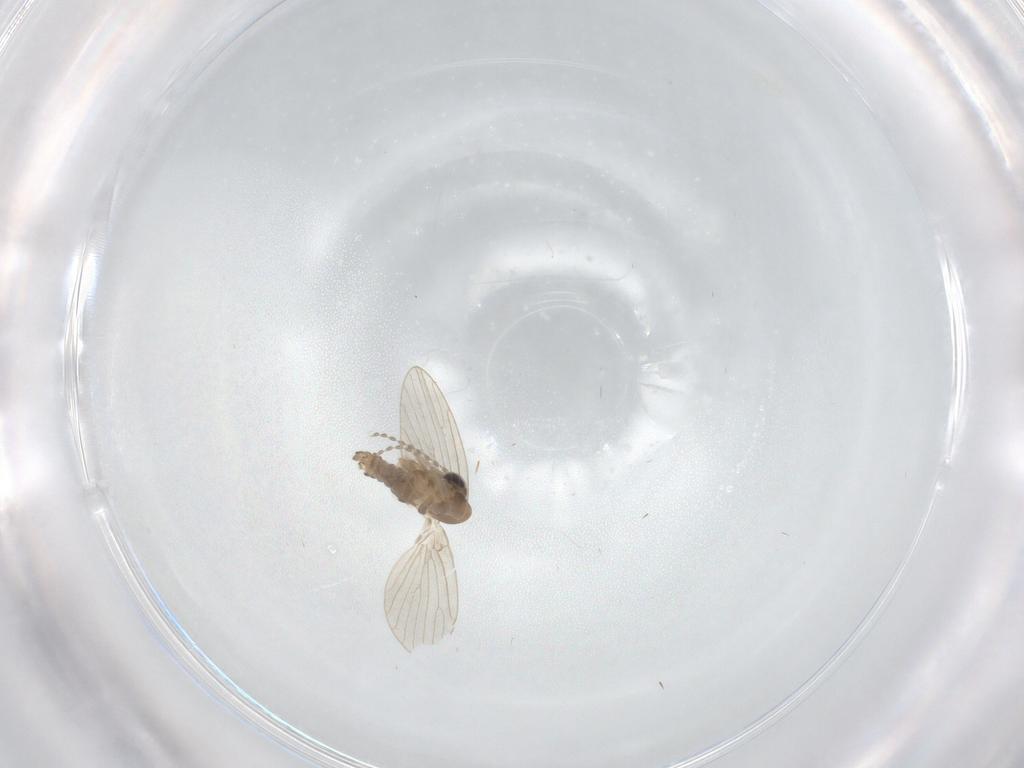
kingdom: Animalia
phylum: Arthropoda
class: Insecta
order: Diptera
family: Psychodidae
